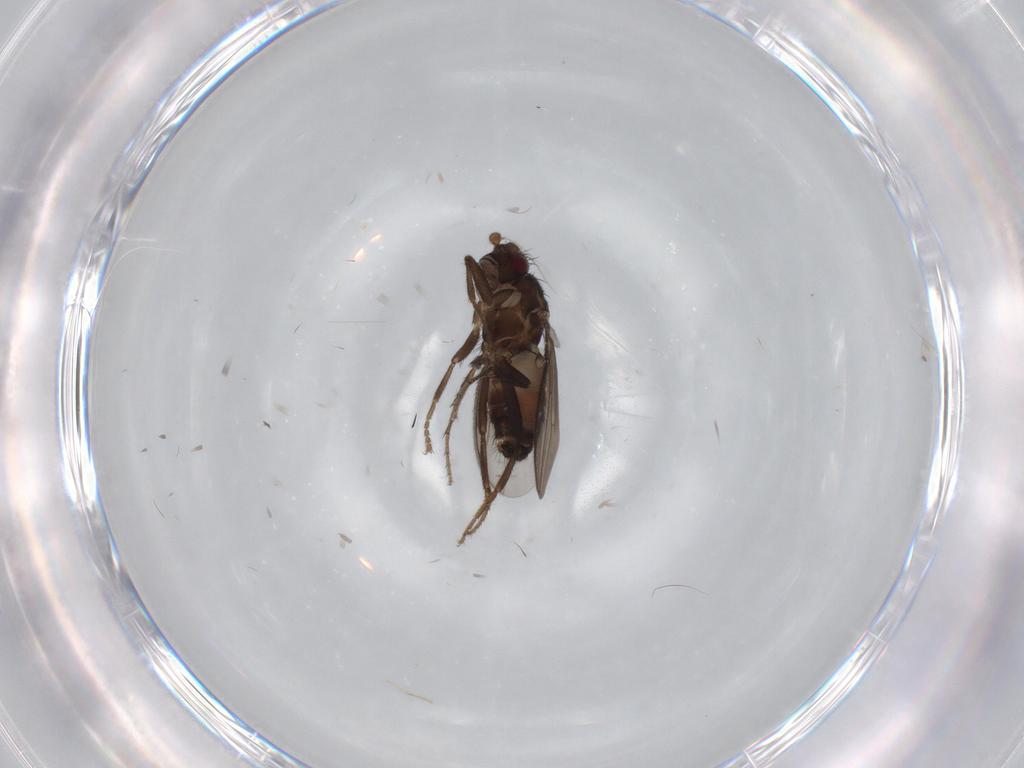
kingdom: Animalia
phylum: Arthropoda
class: Insecta
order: Diptera
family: Sphaeroceridae
